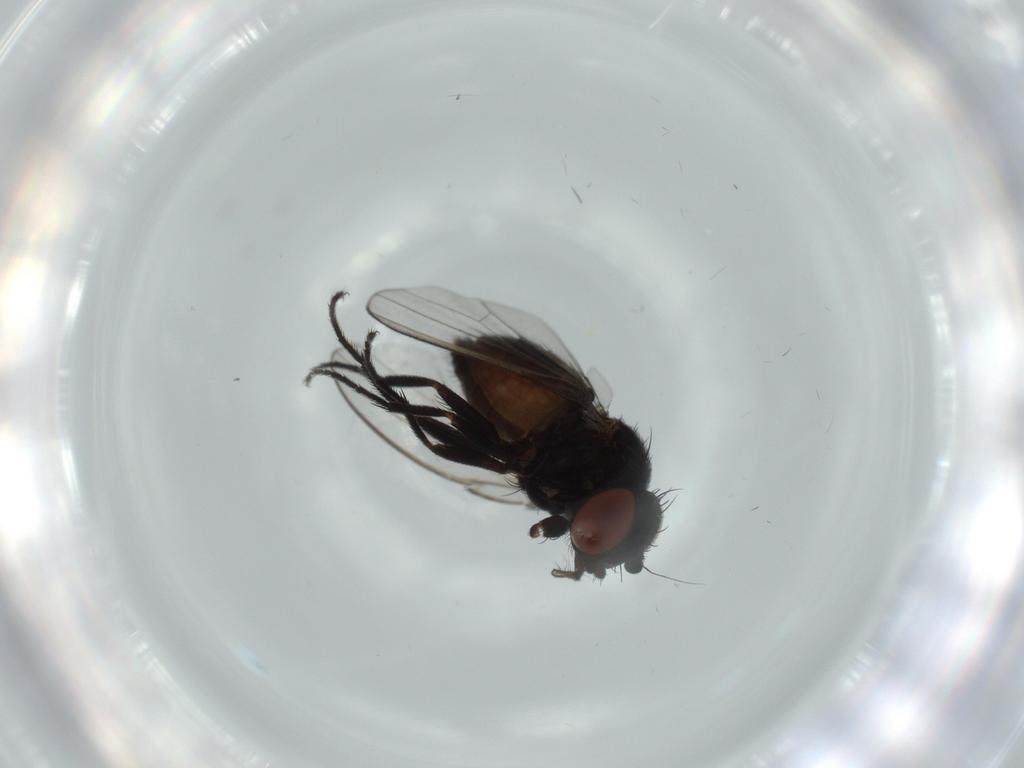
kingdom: Animalia
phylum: Arthropoda
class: Insecta
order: Diptera
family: Milichiidae
